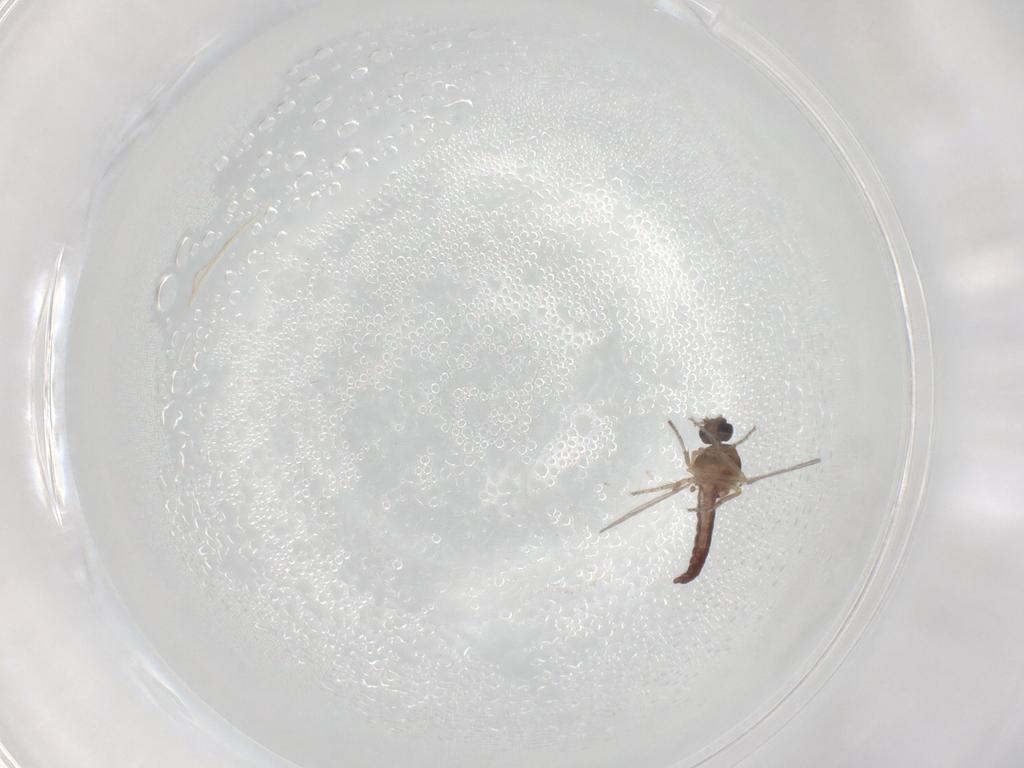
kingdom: Animalia
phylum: Arthropoda
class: Insecta
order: Diptera
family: Ceratopogonidae
